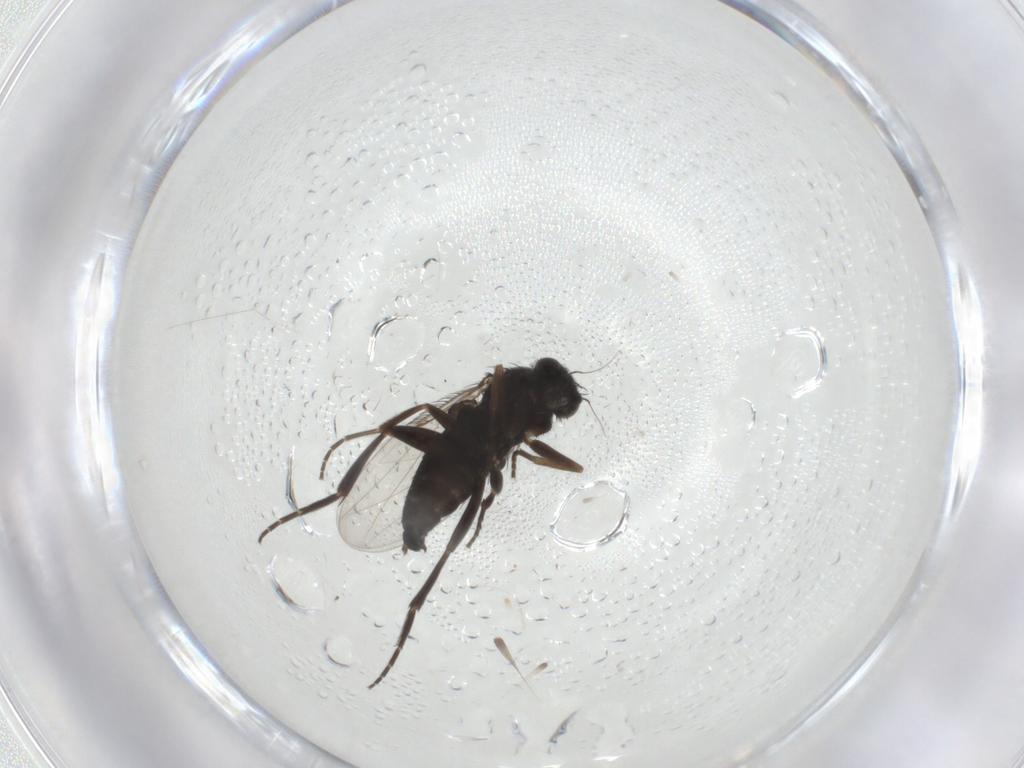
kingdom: Animalia
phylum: Arthropoda
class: Insecta
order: Diptera
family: Phoridae
